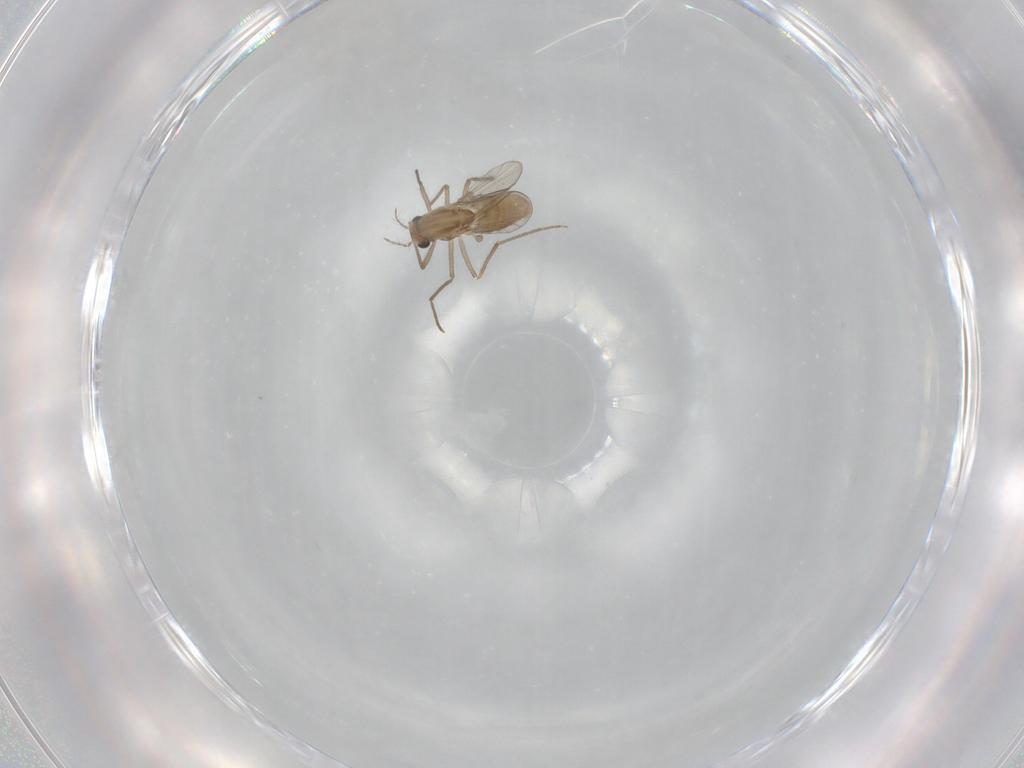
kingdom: Animalia
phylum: Arthropoda
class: Insecta
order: Diptera
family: Chironomidae
